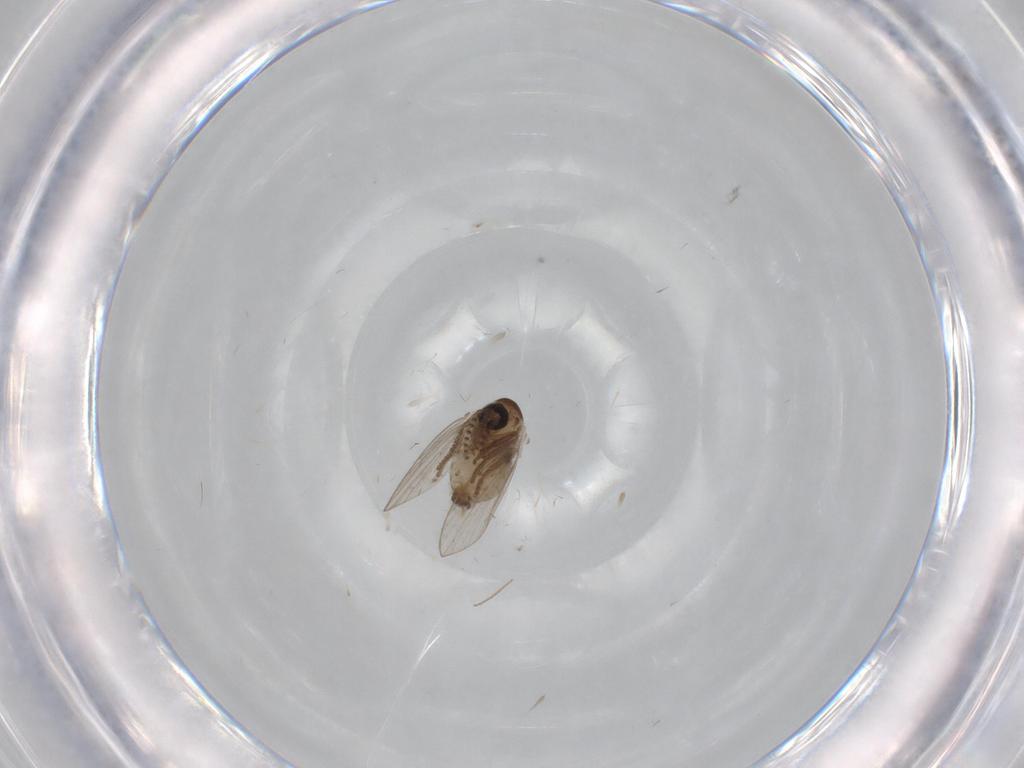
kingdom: Animalia
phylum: Arthropoda
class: Insecta
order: Diptera
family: Psychodidae
